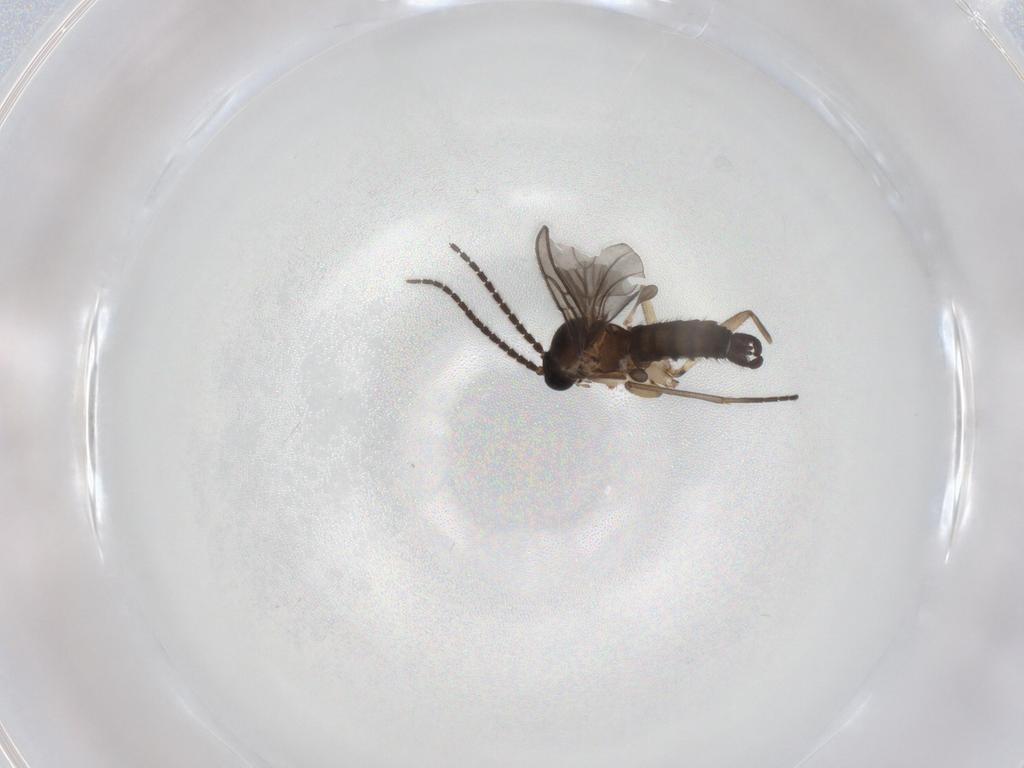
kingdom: Animalia
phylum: Arthropoda
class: Insecta
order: Diptera
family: Sciaridae
